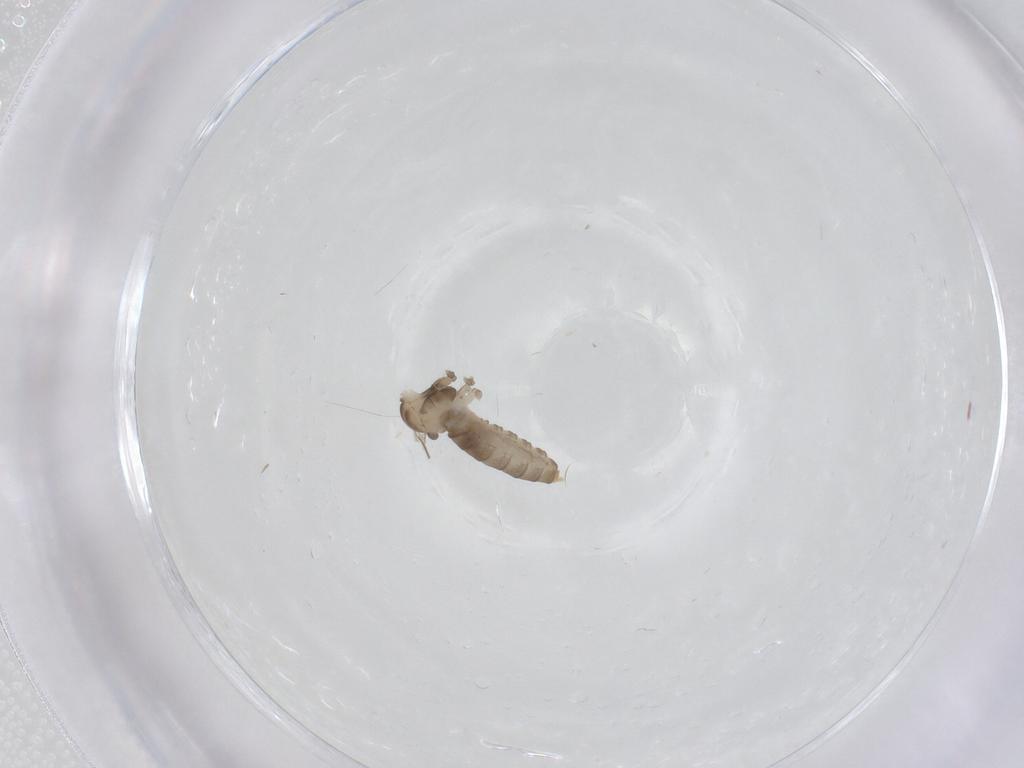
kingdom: Animalia
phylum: Arthropoda
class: Insecta
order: Diptera
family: Cecidomyiidae
